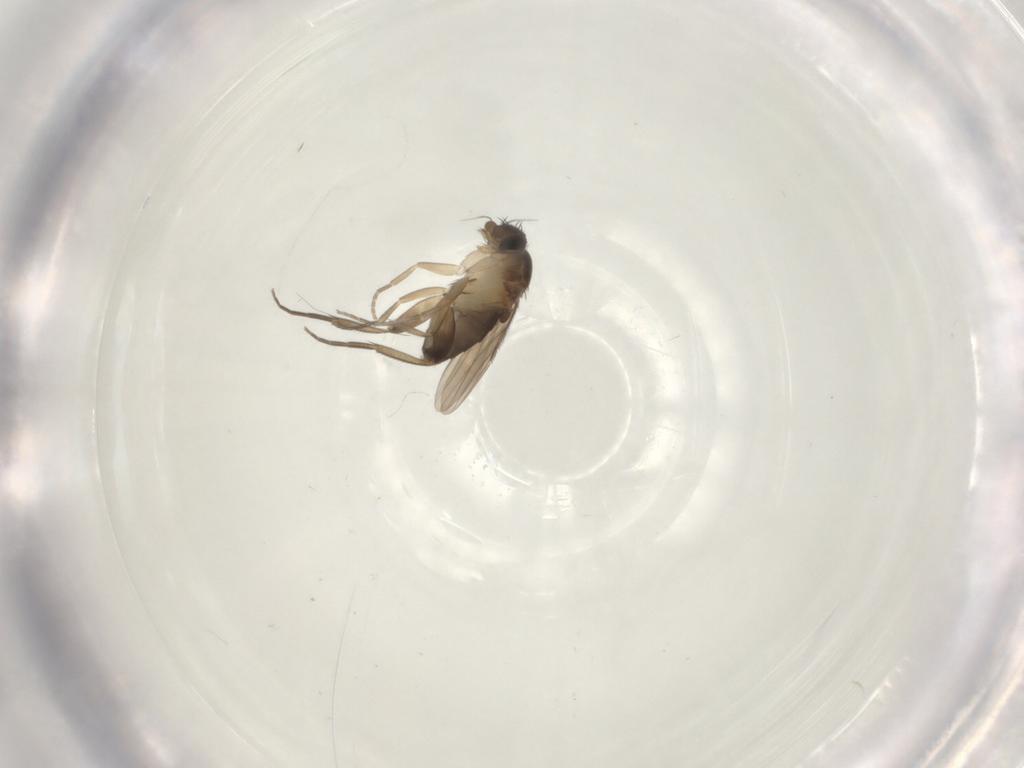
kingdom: Animalia
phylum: Arthropoda
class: Insecta
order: Diptera
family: Phoridae
